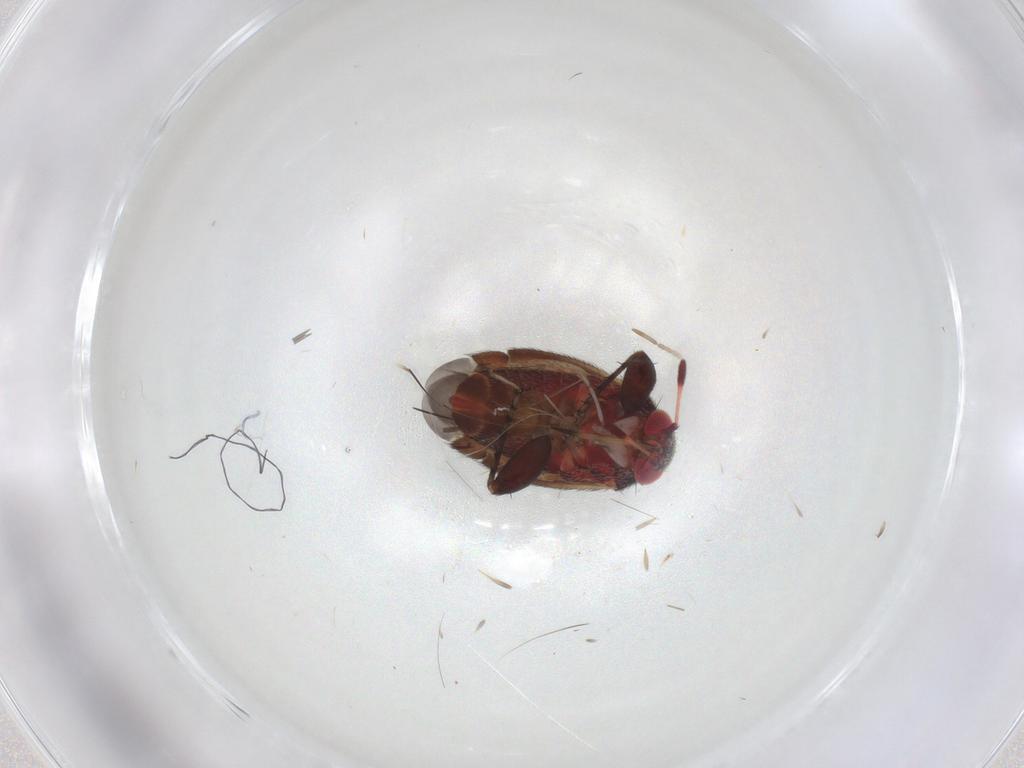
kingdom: Animalia
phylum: Arthropoda
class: Insecta
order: Hemiptera
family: Miridae
